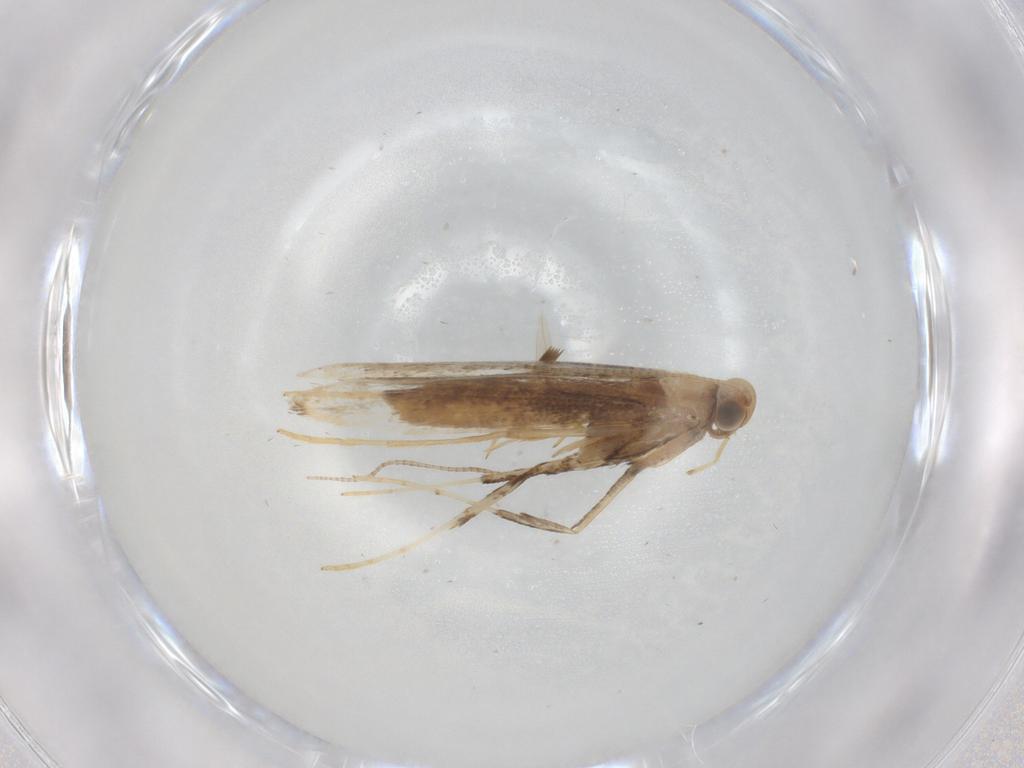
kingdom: Animalia
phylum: Arthropoda
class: Insecta
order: Lepidoptera
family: Gracillariidae
